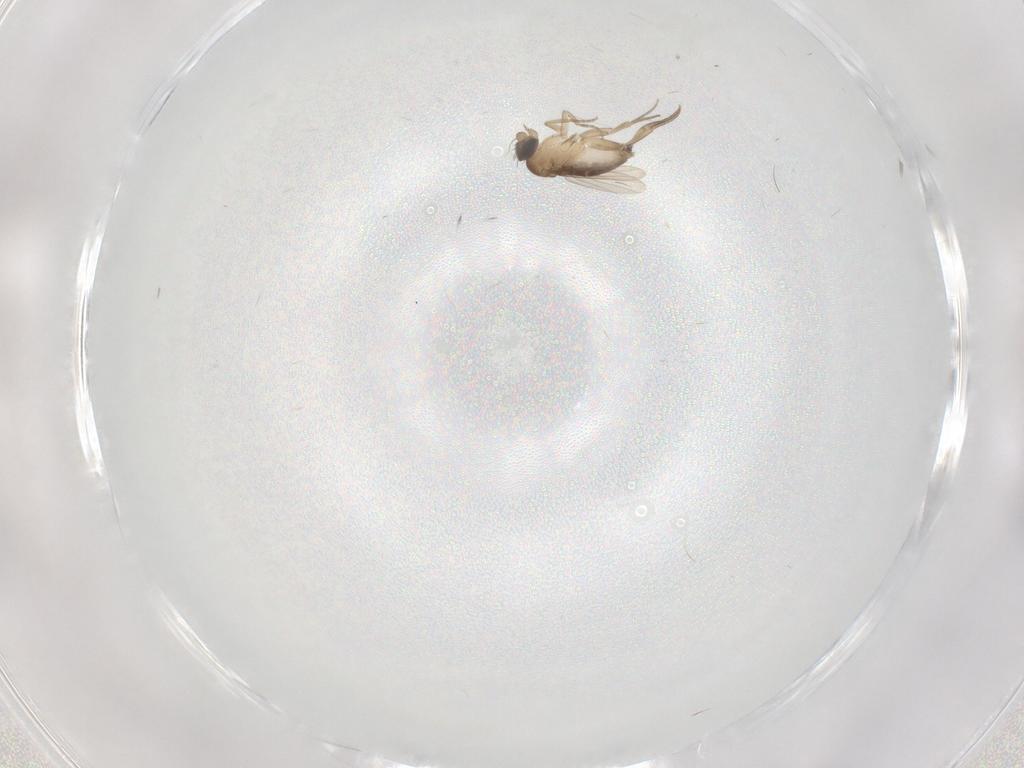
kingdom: Animalia
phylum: Arthropoda
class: Insecta
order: Diptera
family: Phoridae
